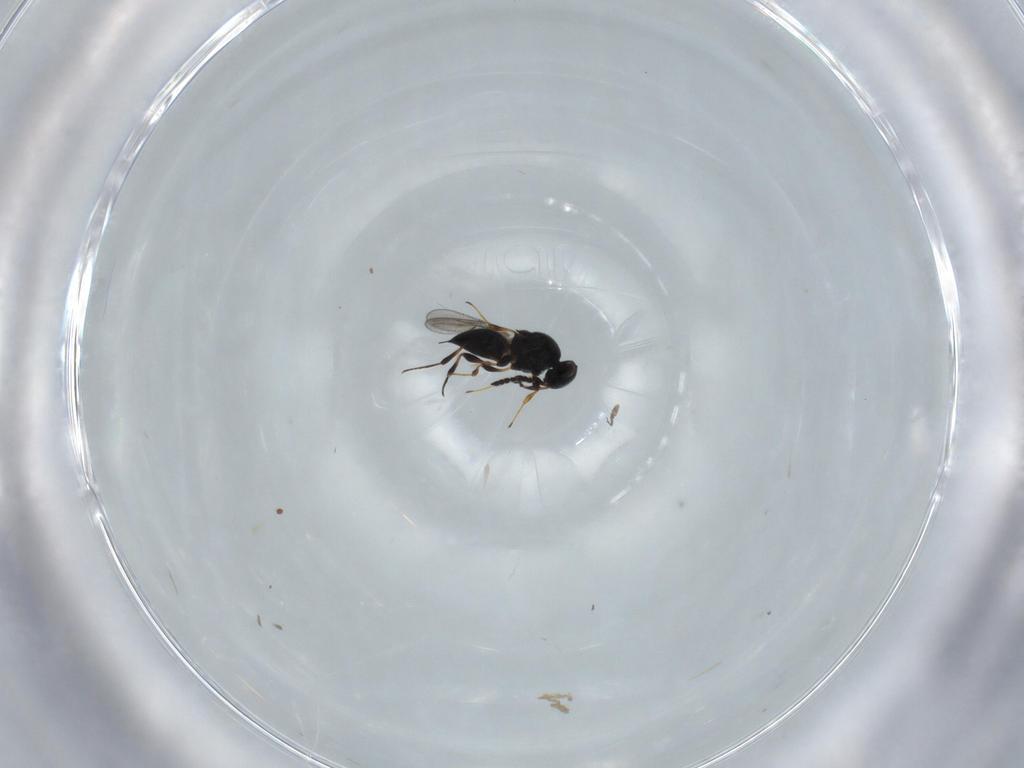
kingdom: Animalia
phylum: Arthropoda
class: Insecta
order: Hymenoptera
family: Platygastridae
